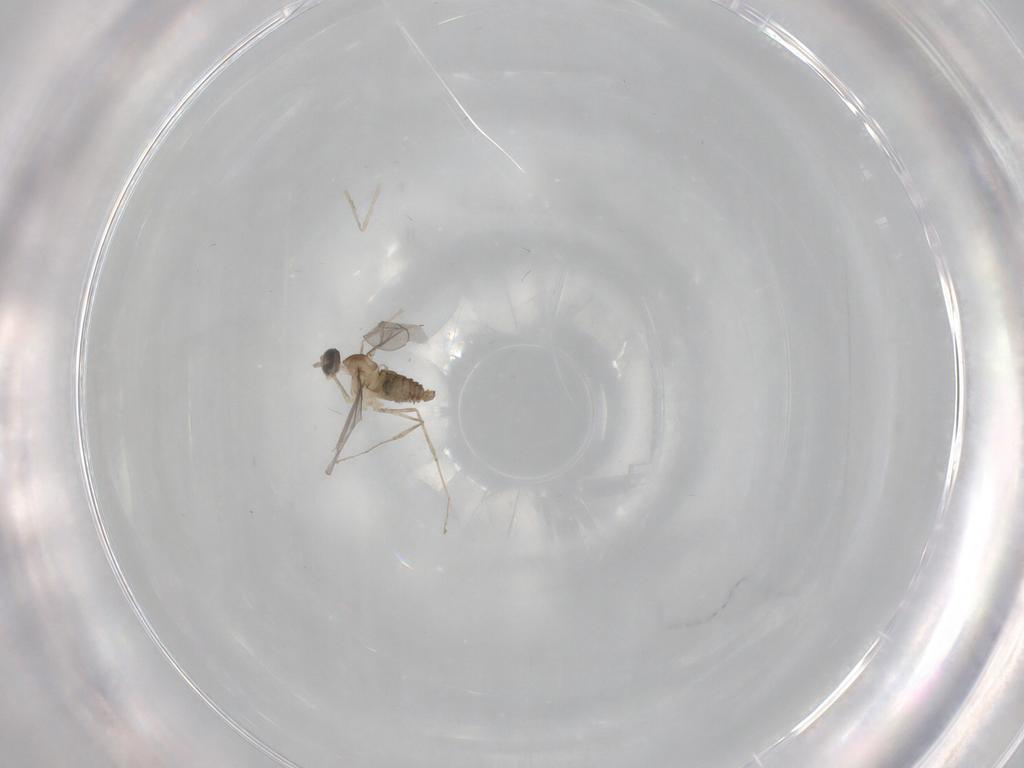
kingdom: Animalia
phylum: Arthropoda
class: Insecta
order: Diptera
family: Cecidomyiidae
